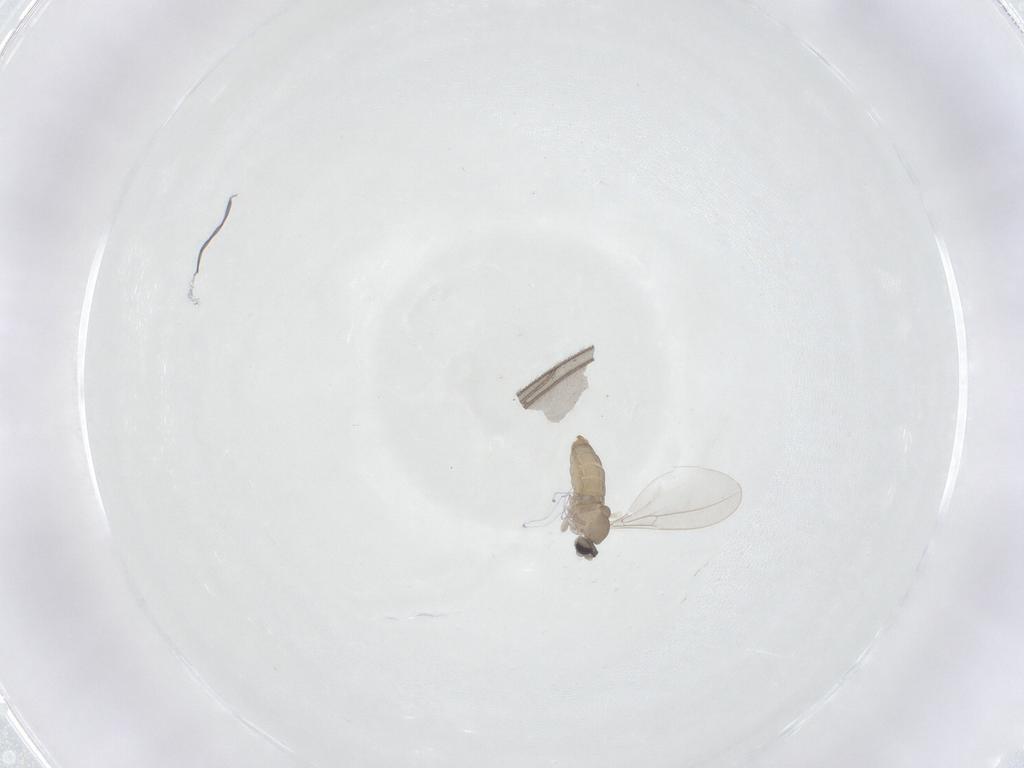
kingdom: Animalia
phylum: Arthropoda
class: Insecta
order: Diptera
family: Cecidomyiidae
